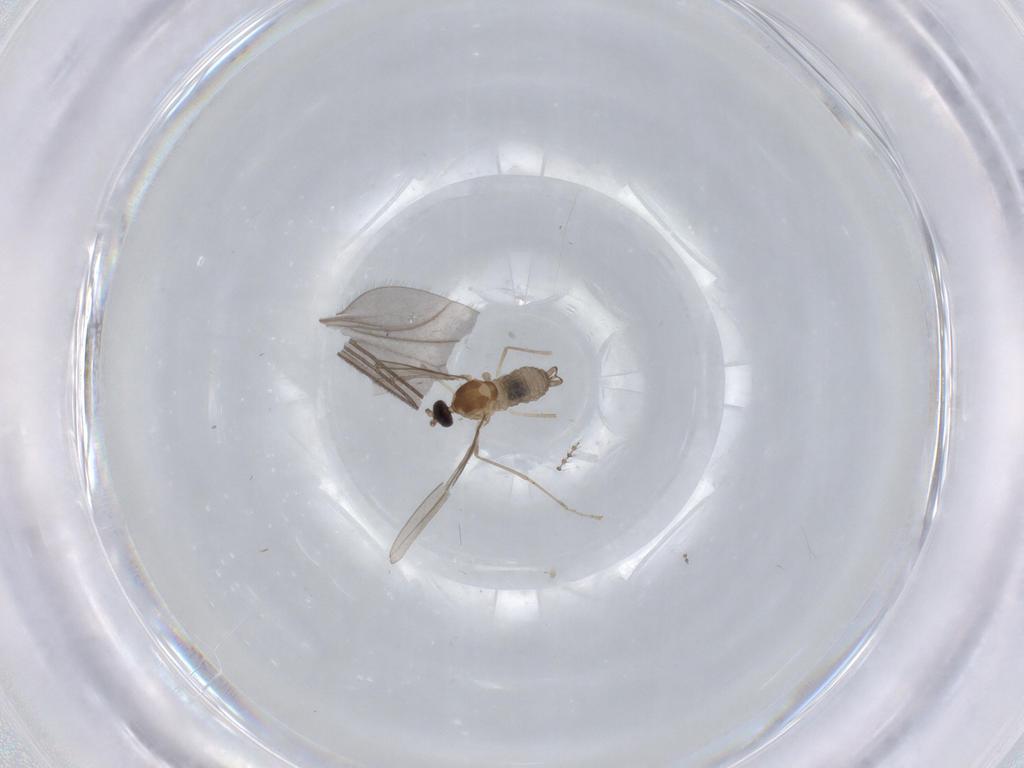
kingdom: Animalia
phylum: Arthropoda
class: Insecta
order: Diptera
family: Cecidomyiidae
